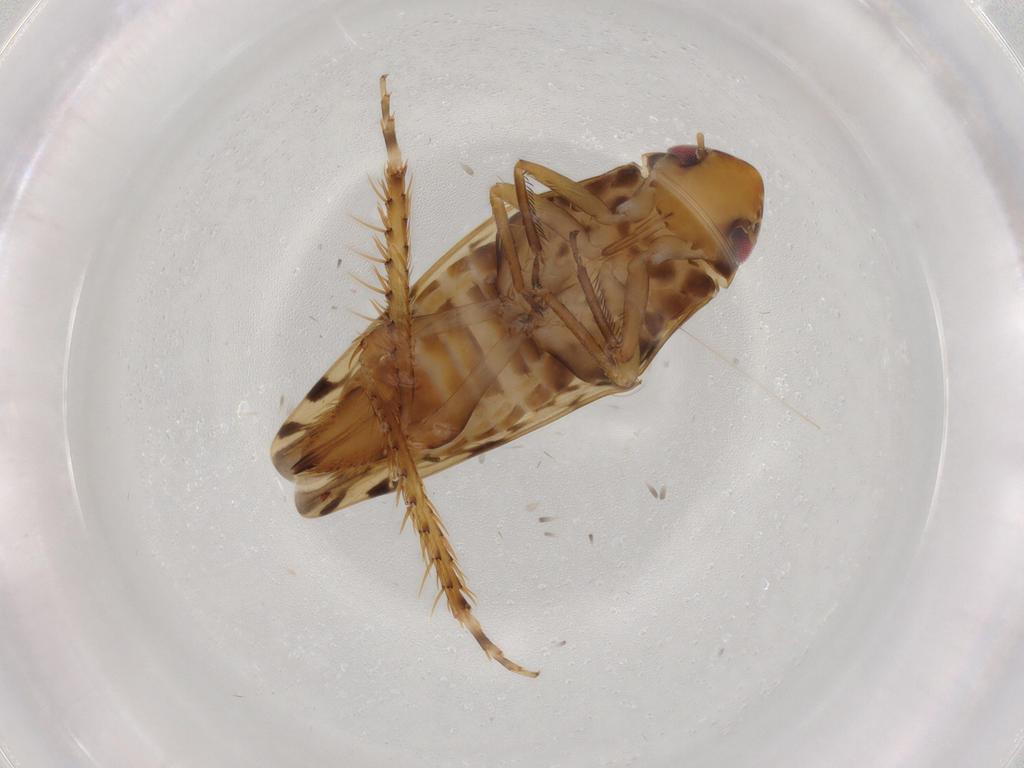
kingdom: Animalia
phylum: Arthropoda
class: Insecta
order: Hemiptera
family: Cicadellidae
